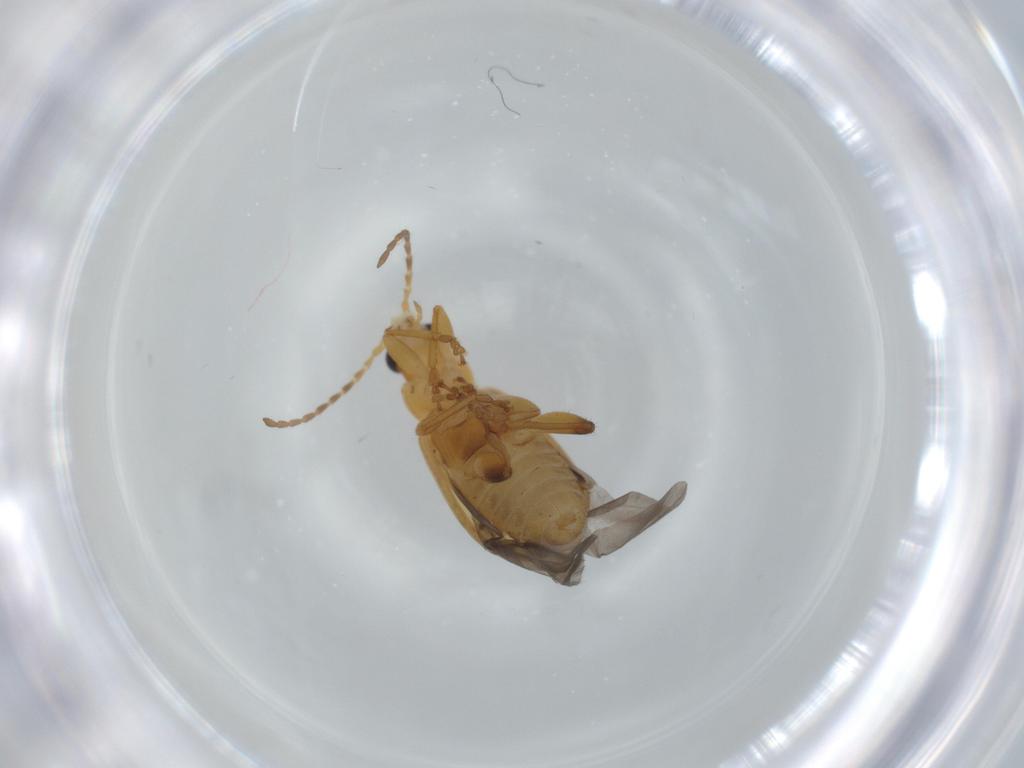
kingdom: Animalia
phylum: Arthropoda
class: Insecta
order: Coleoptera
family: Chrysomelidae
